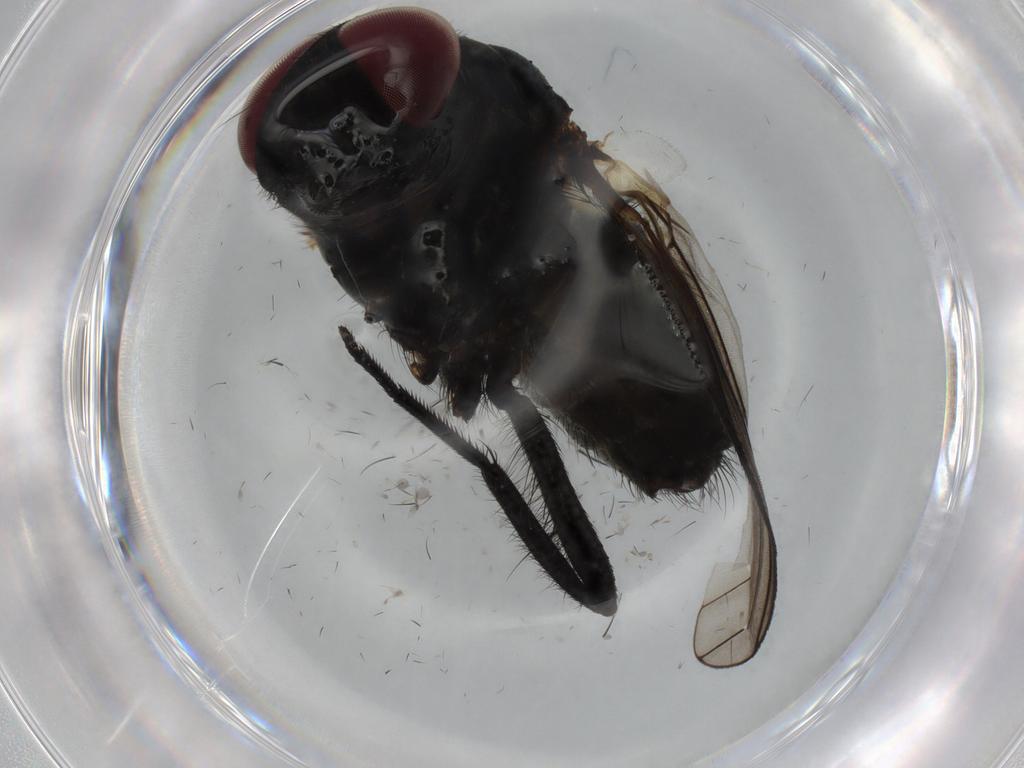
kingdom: Animalia
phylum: Arthropoda
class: Insecta
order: Diptera
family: Muscidae
